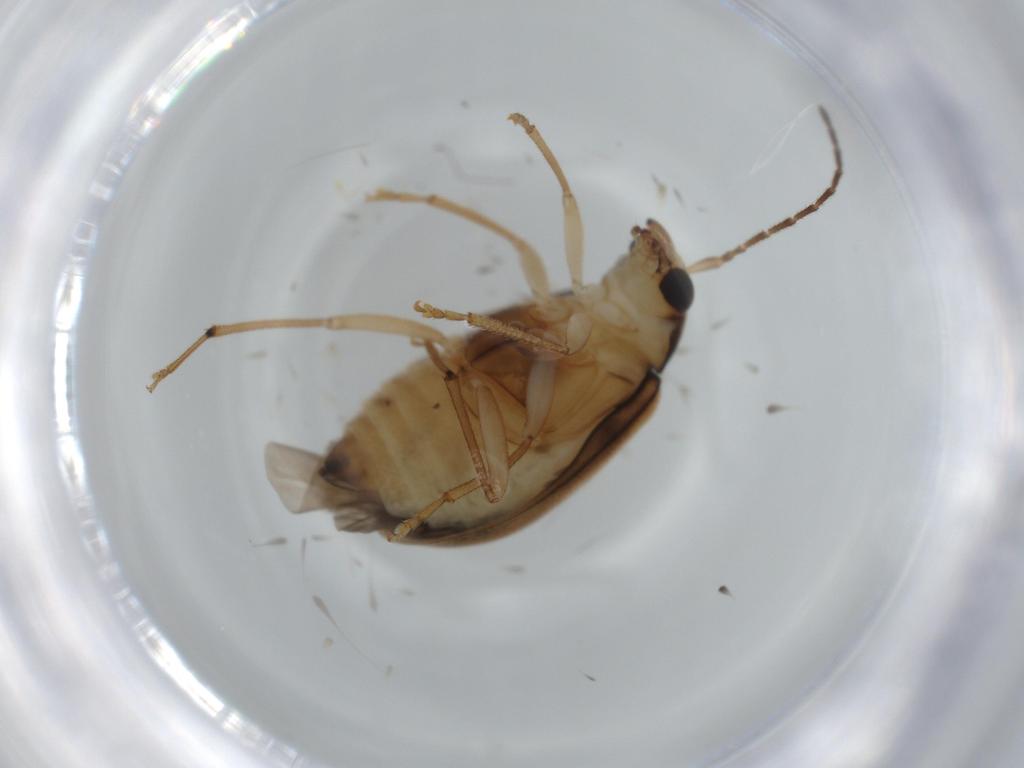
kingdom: Animalia
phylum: Arthropoda
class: Insecta
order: Coleoptera
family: Chrysomelidae
